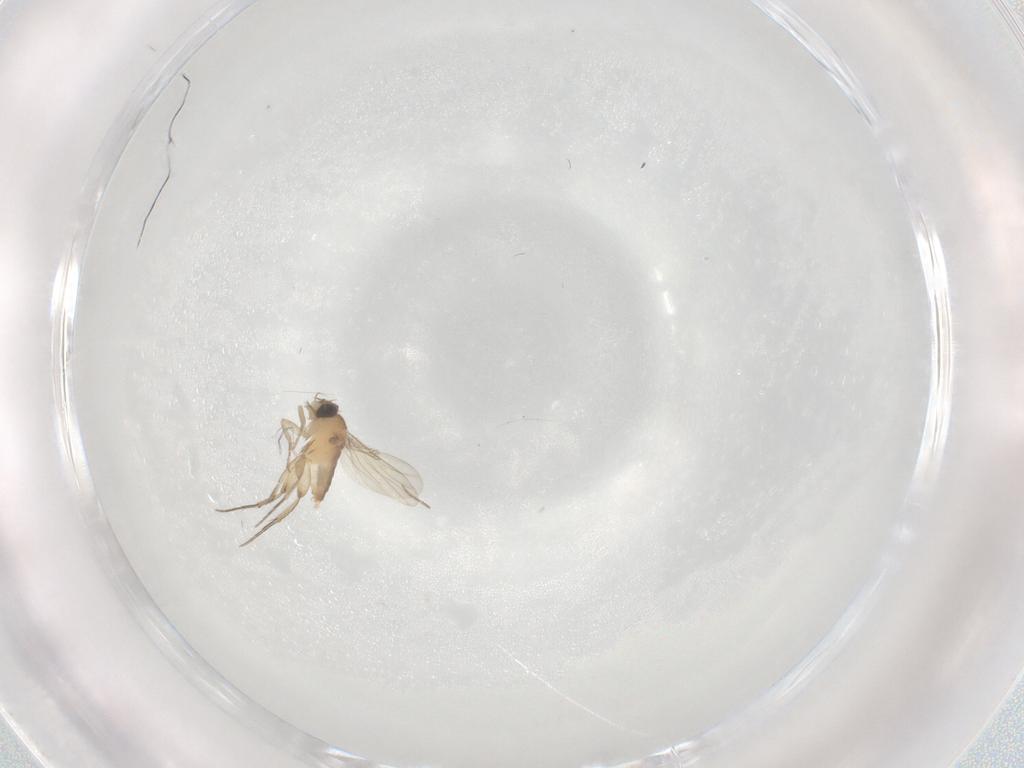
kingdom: Animalia
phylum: Arthropoda
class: Insecta
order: Diptera
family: Phoridae
